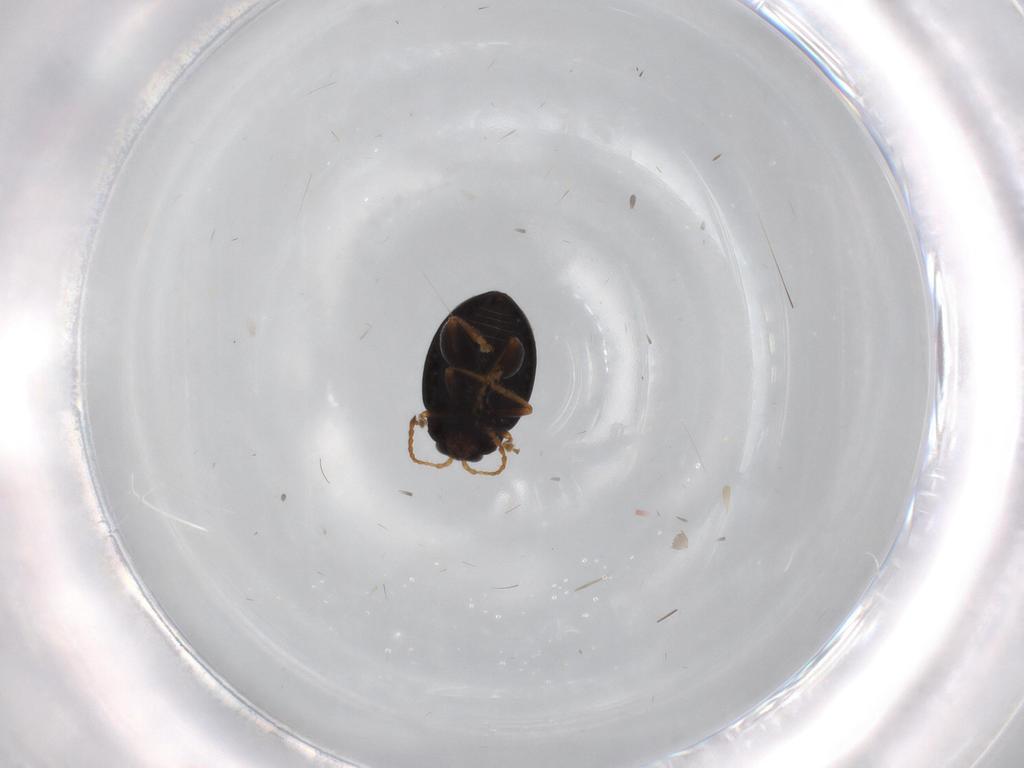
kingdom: Animalia
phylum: Arthropoda
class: Insecta
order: Coleoptera
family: Chrysomelidae
